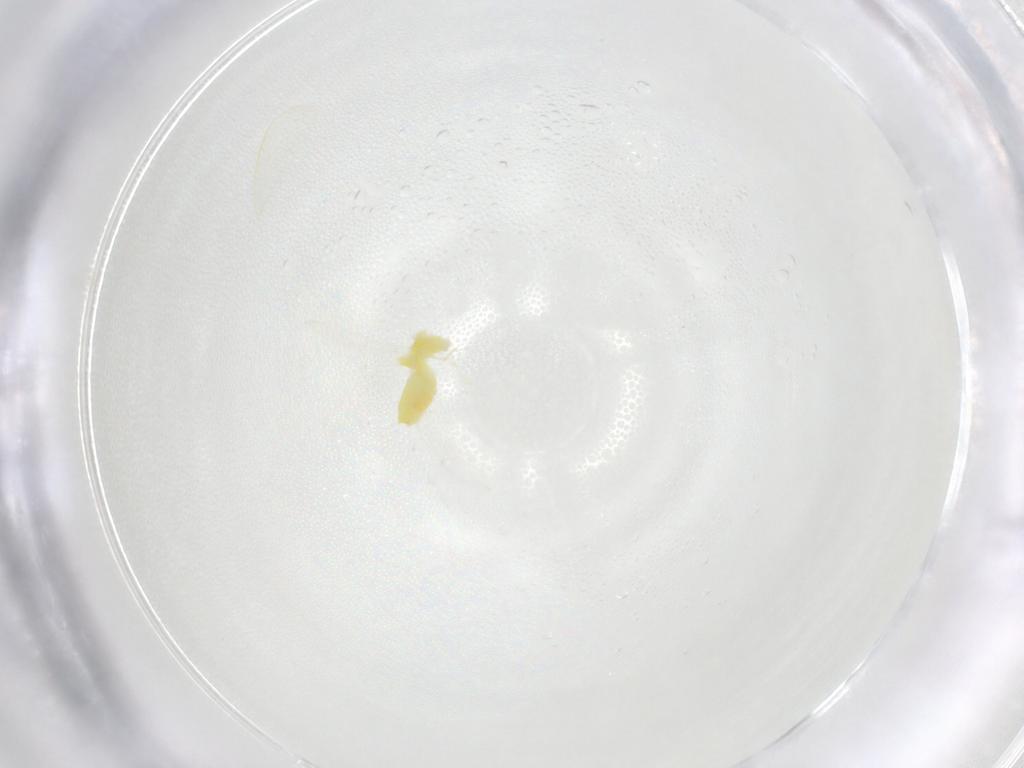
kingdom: Animalia
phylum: Arthropoda
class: Insecta
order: Hemiptera
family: Aleyrodidae
